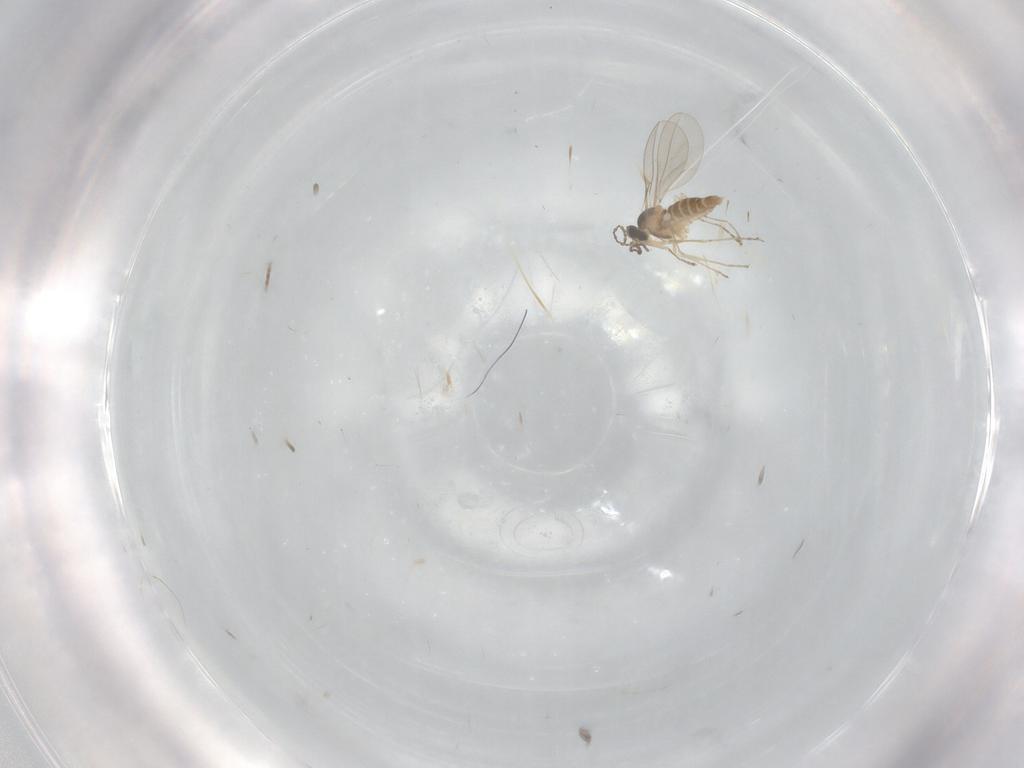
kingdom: Animalia
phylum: Arthropoda
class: Insecta
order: Diptera
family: Cecidomyiidae
